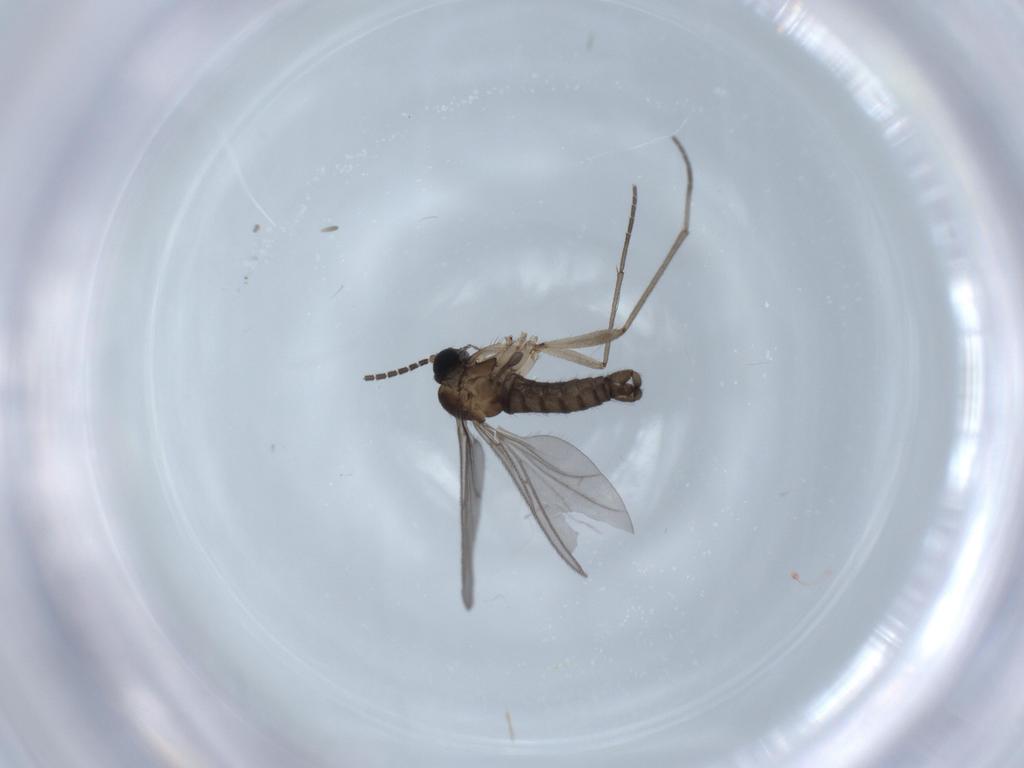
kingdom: Animalia
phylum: Arthropoda
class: Insecta
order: Diptera
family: Sciaridae
